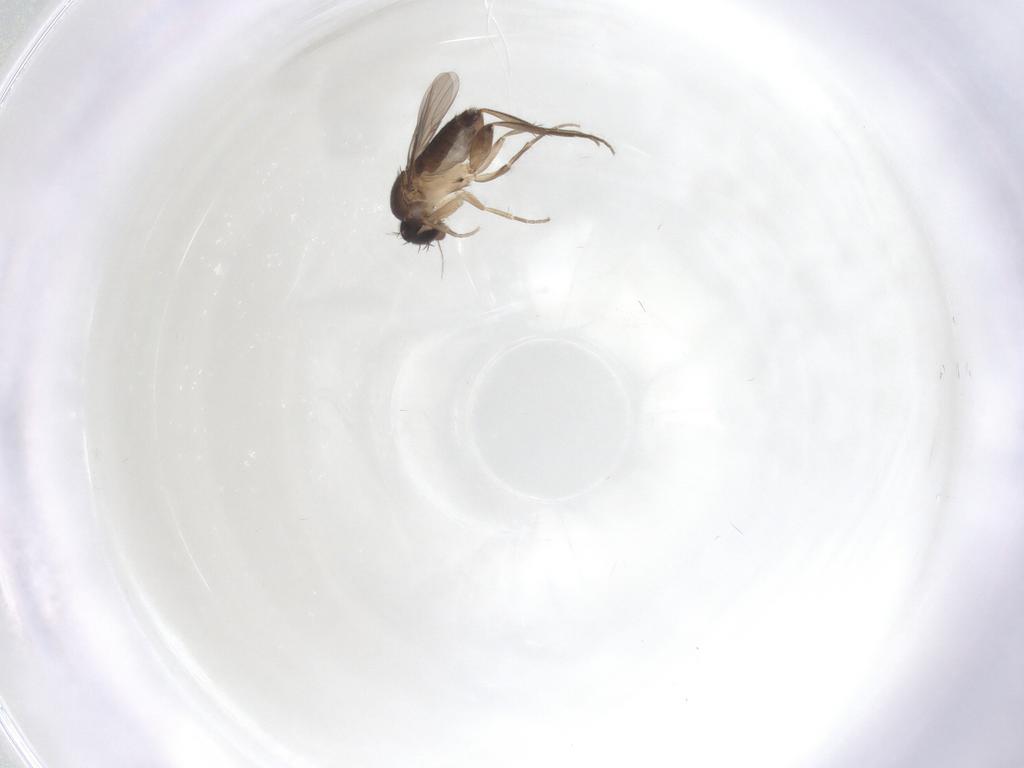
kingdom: Animalia
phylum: Arthropoda
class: Insecta
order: Diptera
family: Phoridae
